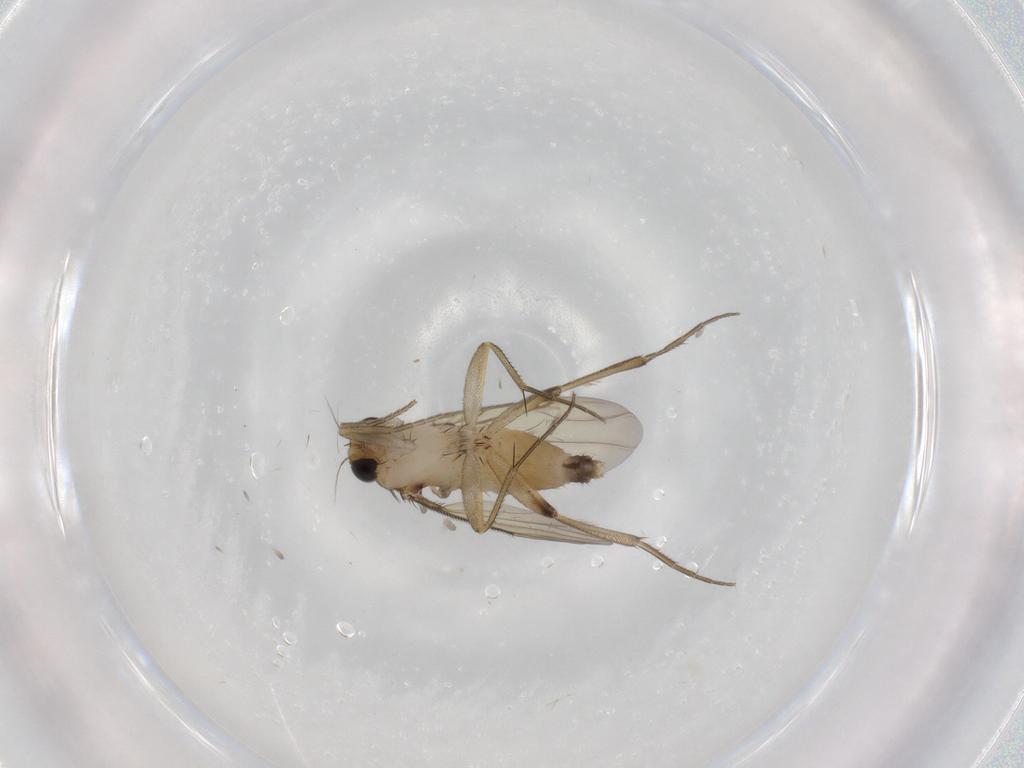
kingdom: Animalia
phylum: Arthropoda
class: Insecta
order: Diptera
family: Phoridae
